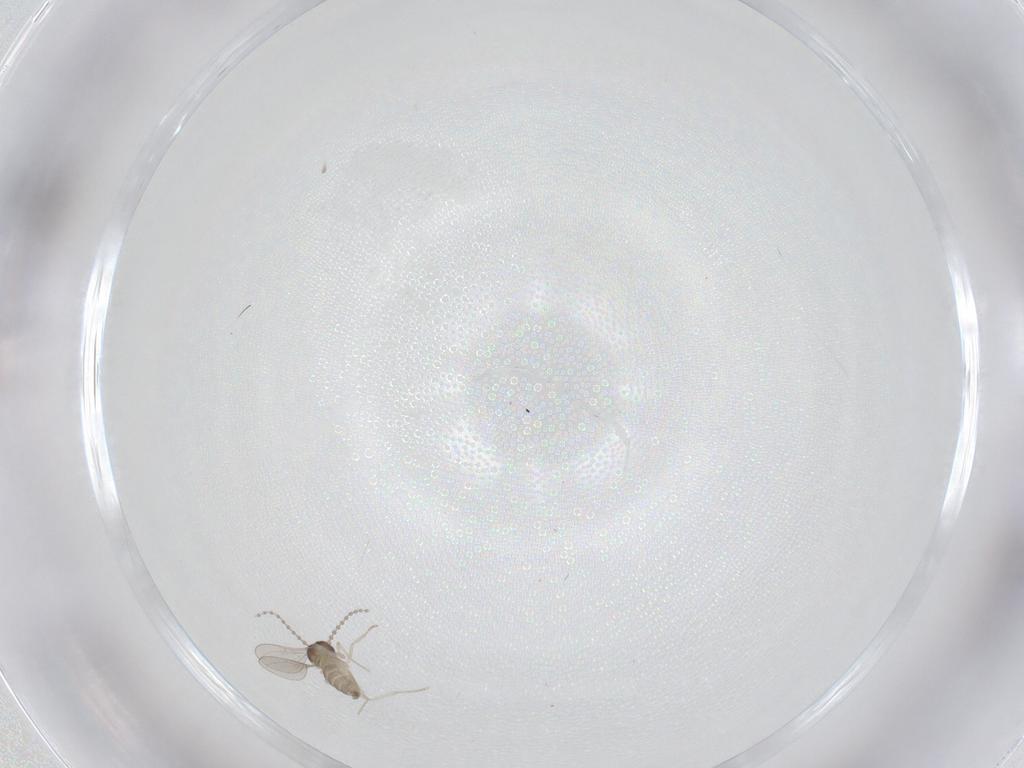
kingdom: Animalia
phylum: Arthropoda
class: Insecta
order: Diptera
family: Cecidomyiidae
